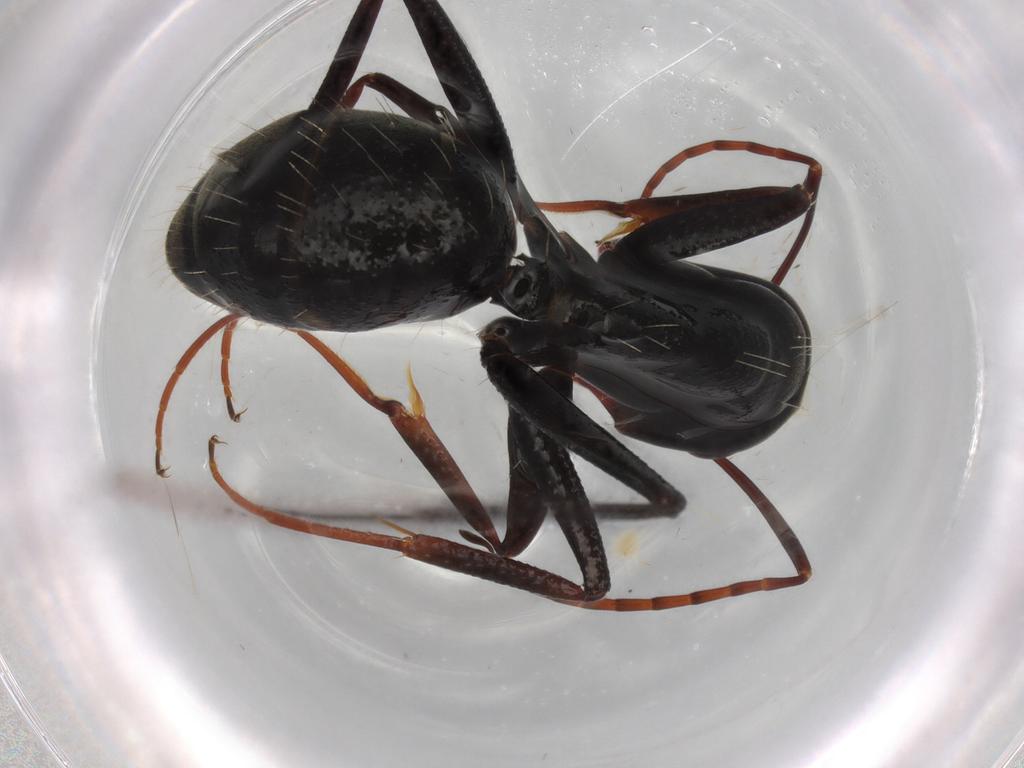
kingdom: Animalia
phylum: Arthropoda
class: Insecta
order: Hymenoptera
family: Formicidae
